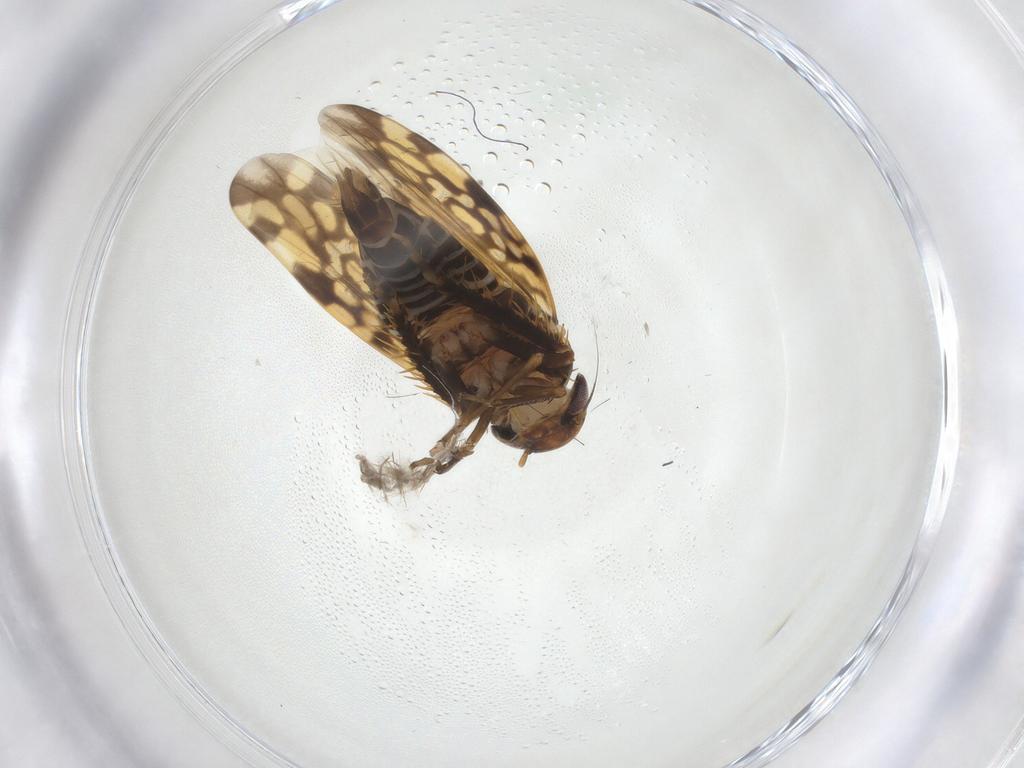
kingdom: Animalia
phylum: Arthropoda
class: Insecta
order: Hemiptera
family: Cicadellidae
